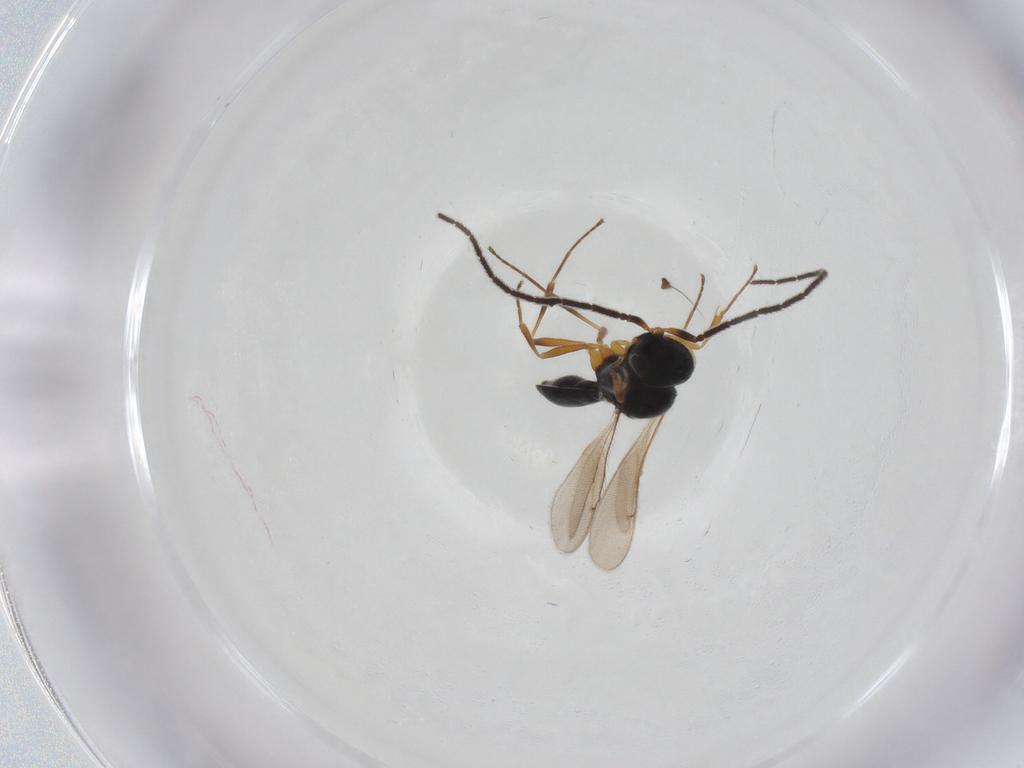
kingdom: Animalia
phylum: Arthropoda
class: Insecta
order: Hymenoptera
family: Scelionidae
